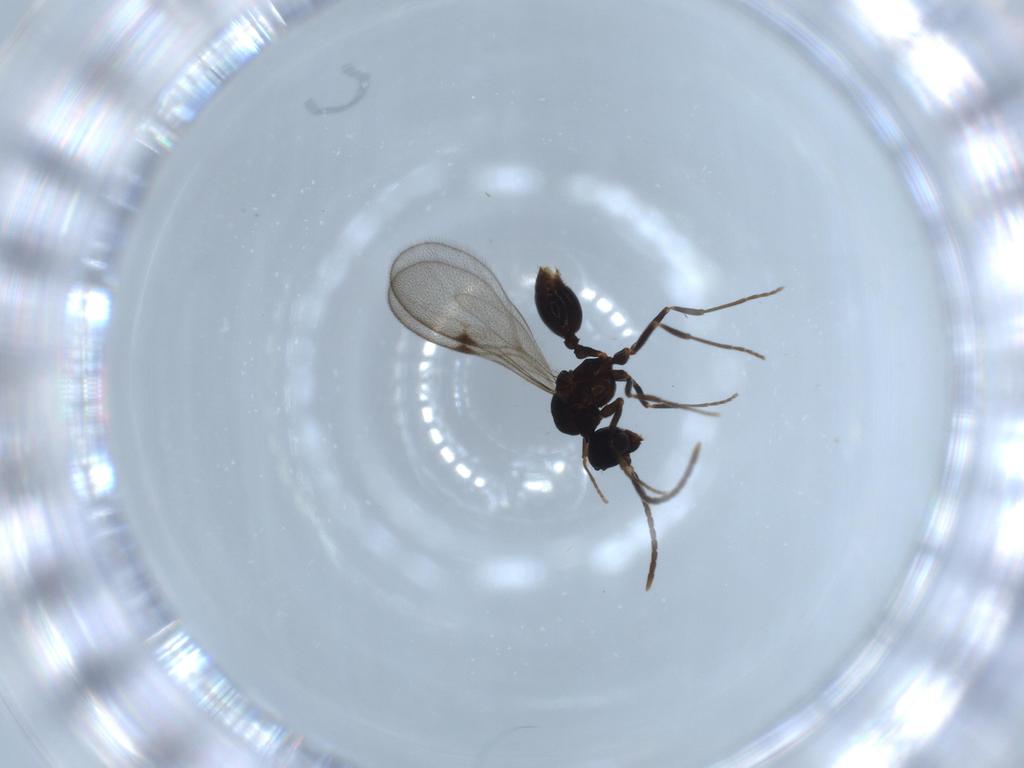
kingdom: Animalia
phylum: Arthropoda
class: Insecta
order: Hymenoptera
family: Formicidae
